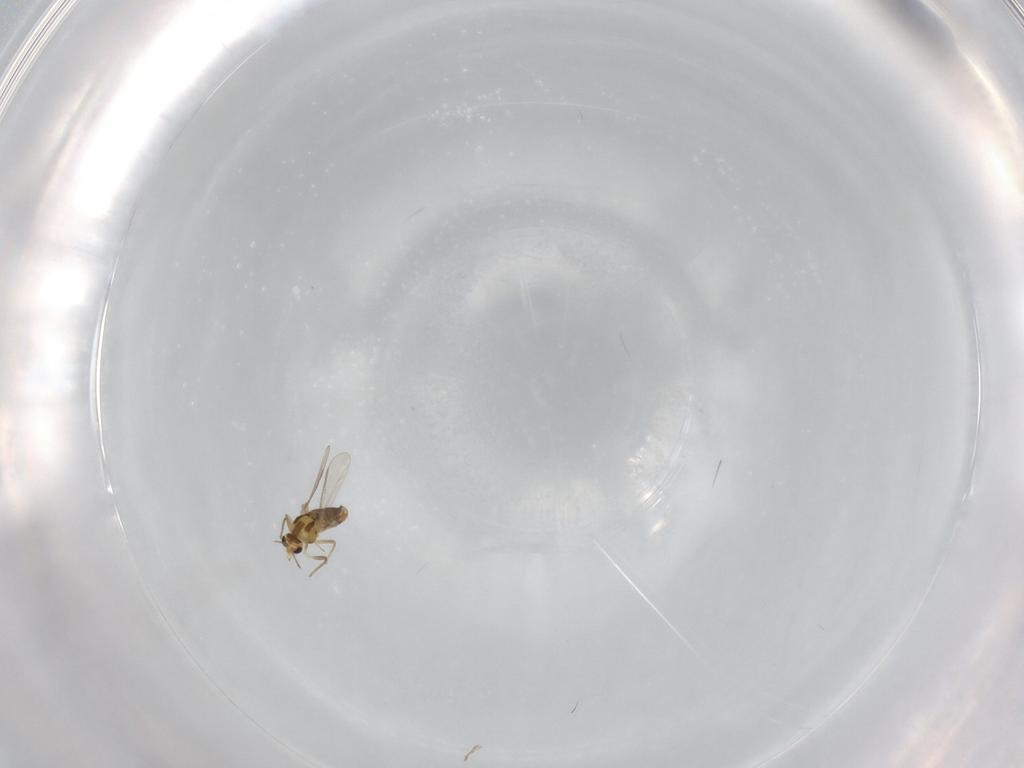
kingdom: Animalia
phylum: Arthropoda
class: Insecta
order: Diptera
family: Chironomidae
